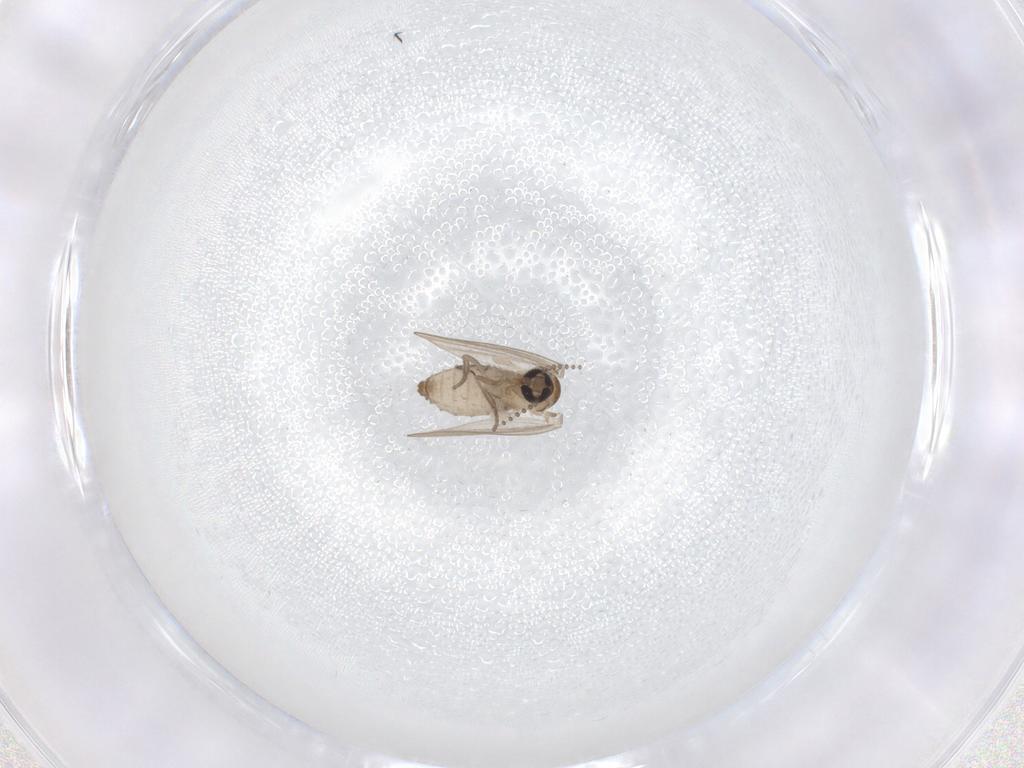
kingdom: Animalia
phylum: Arthropoda
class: Insecta
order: Diptera
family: Psychodidae
